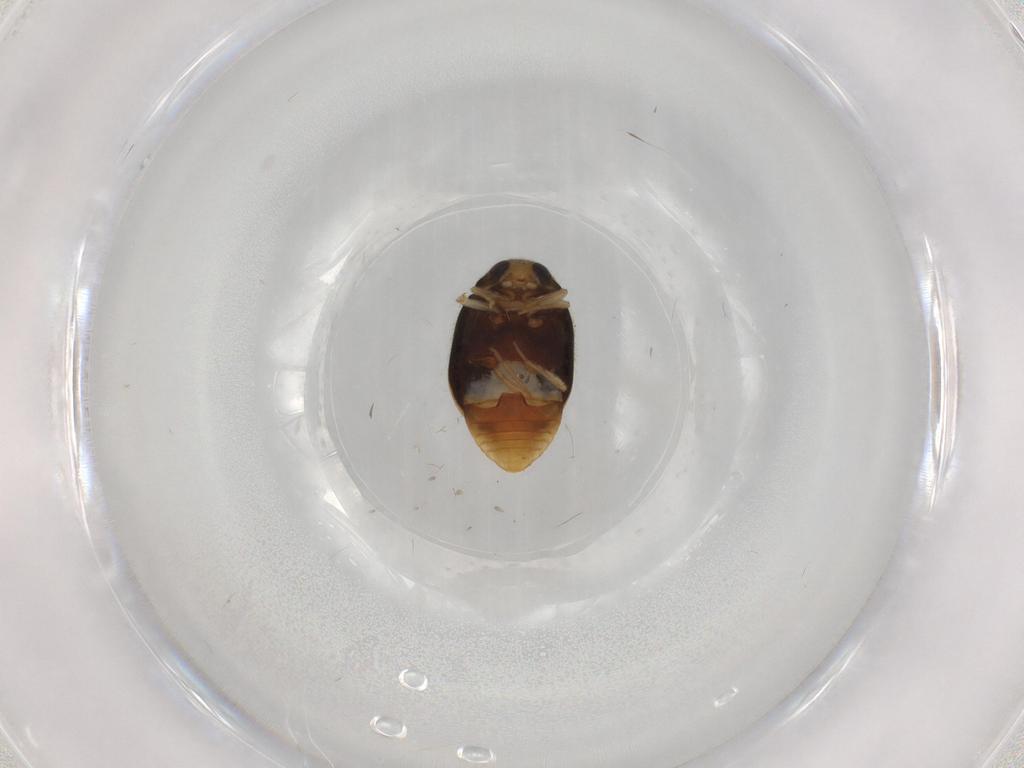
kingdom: Animalia
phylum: Arthropoda
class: Insecta
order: Coleoptera
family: Coccinellidae
